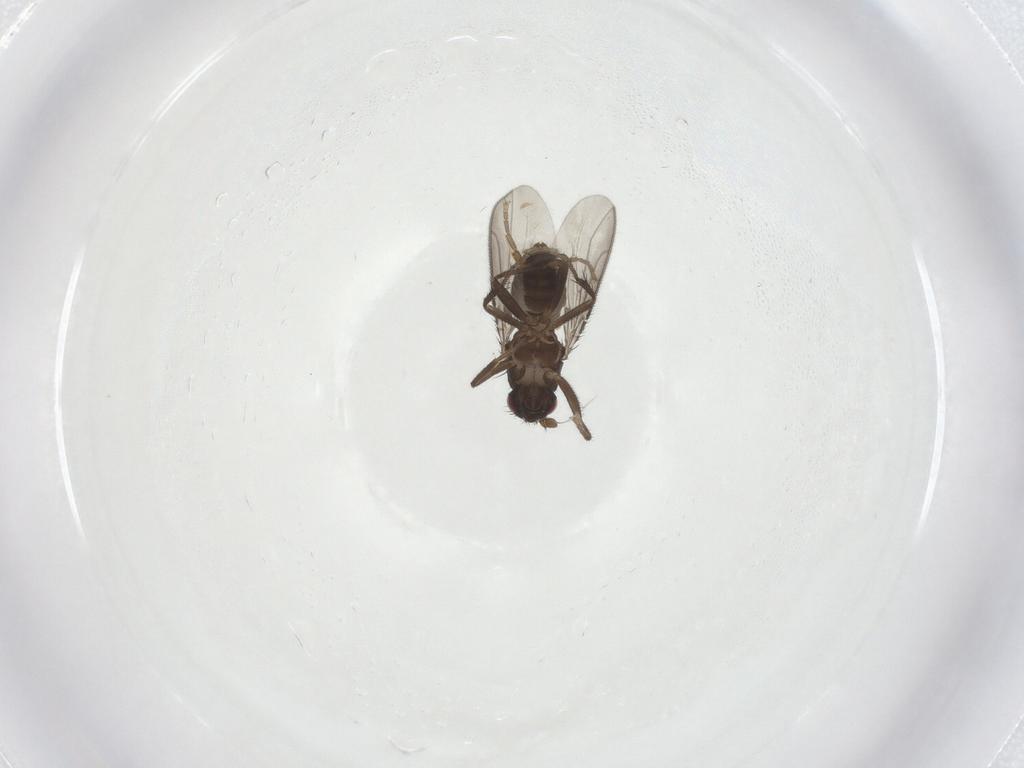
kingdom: Animalia
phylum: Arthropoda
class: Insecta
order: Diptera
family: Sphaeroceridae
